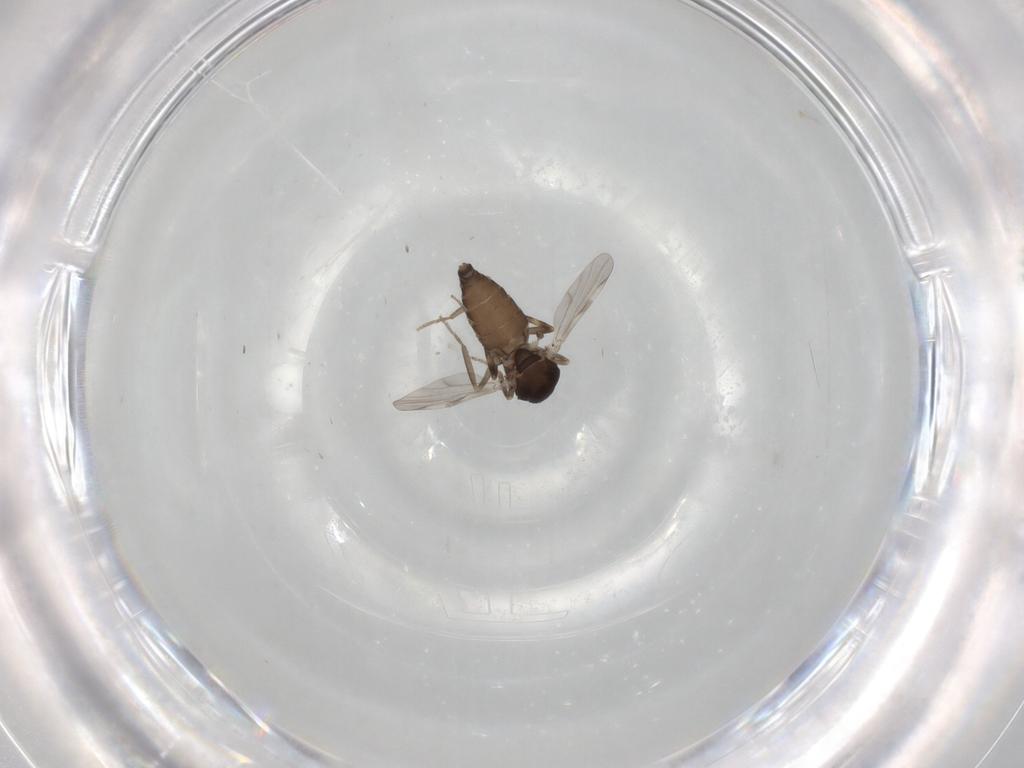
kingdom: Animalia
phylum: Arthropoda
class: Insecta
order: Diptera
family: Ceratopogonidae
